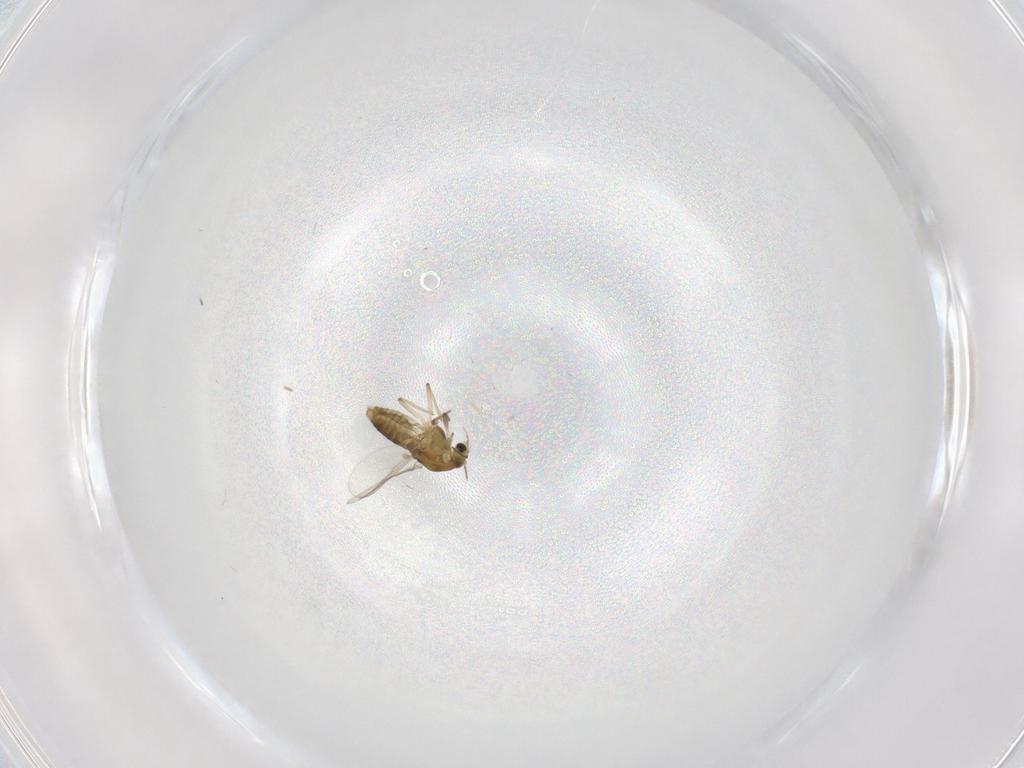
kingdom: Animalia
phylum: Arthropoda
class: Insecta
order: Diptera
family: Chironomidae
